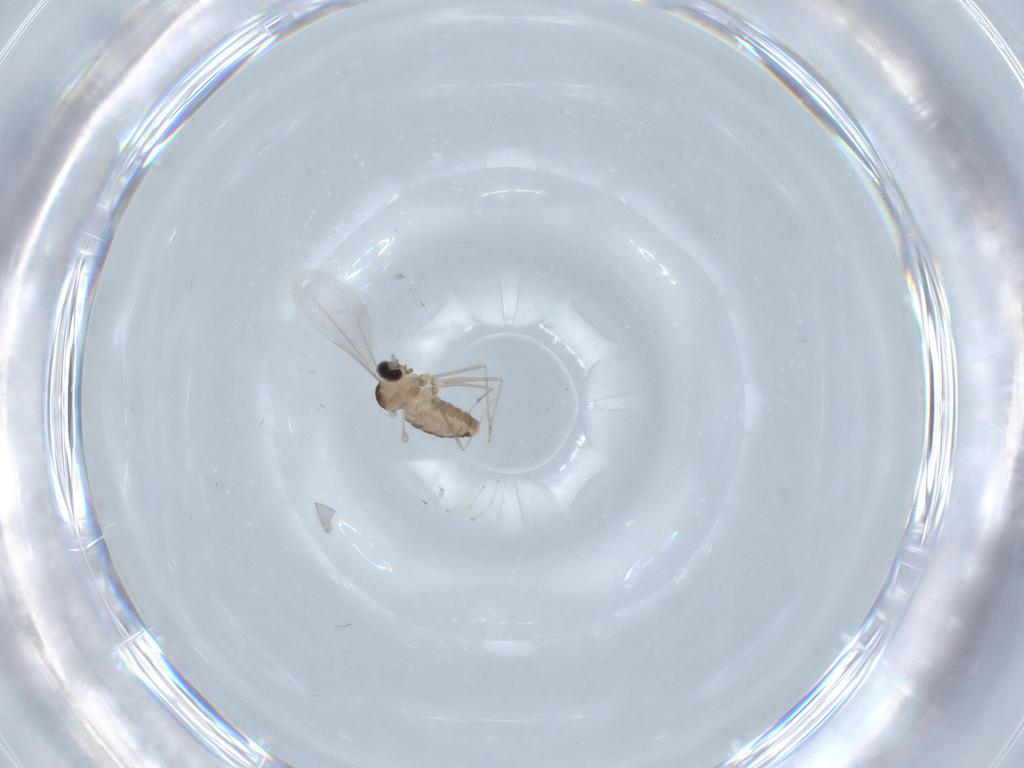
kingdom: Animalia
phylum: Arthropoda
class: Insecta
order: Diptera
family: Cecidomyiidae
